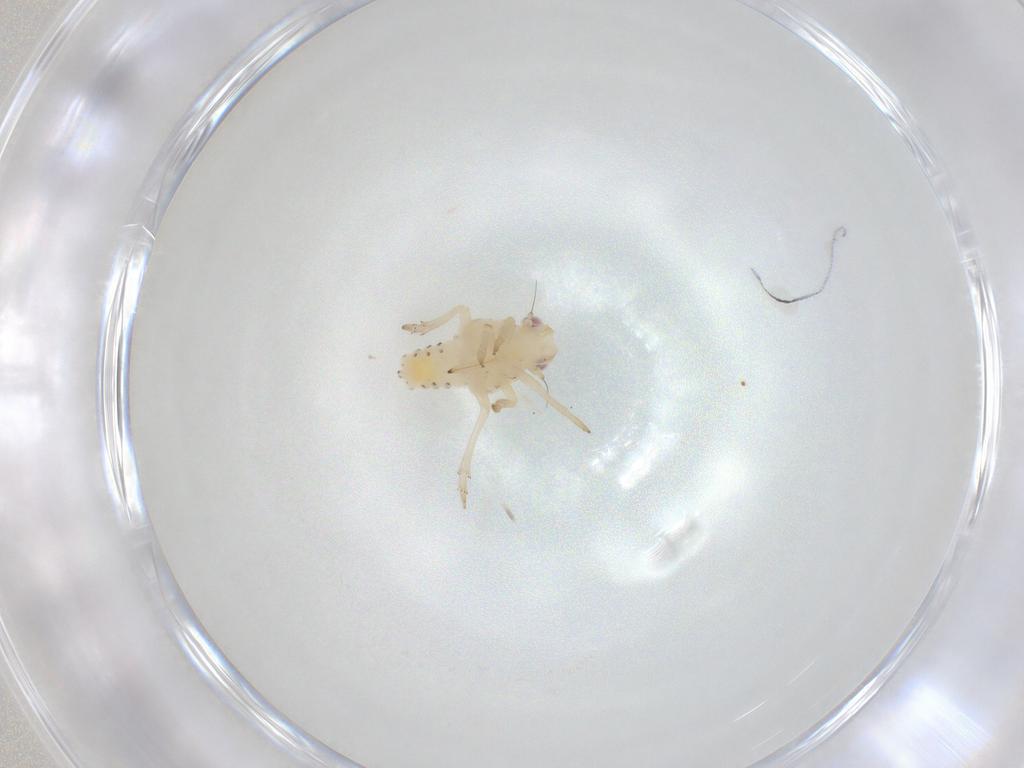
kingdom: Animalia
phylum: Arthropoda
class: Insecta
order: Hemiptera
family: Tropiduchidae
